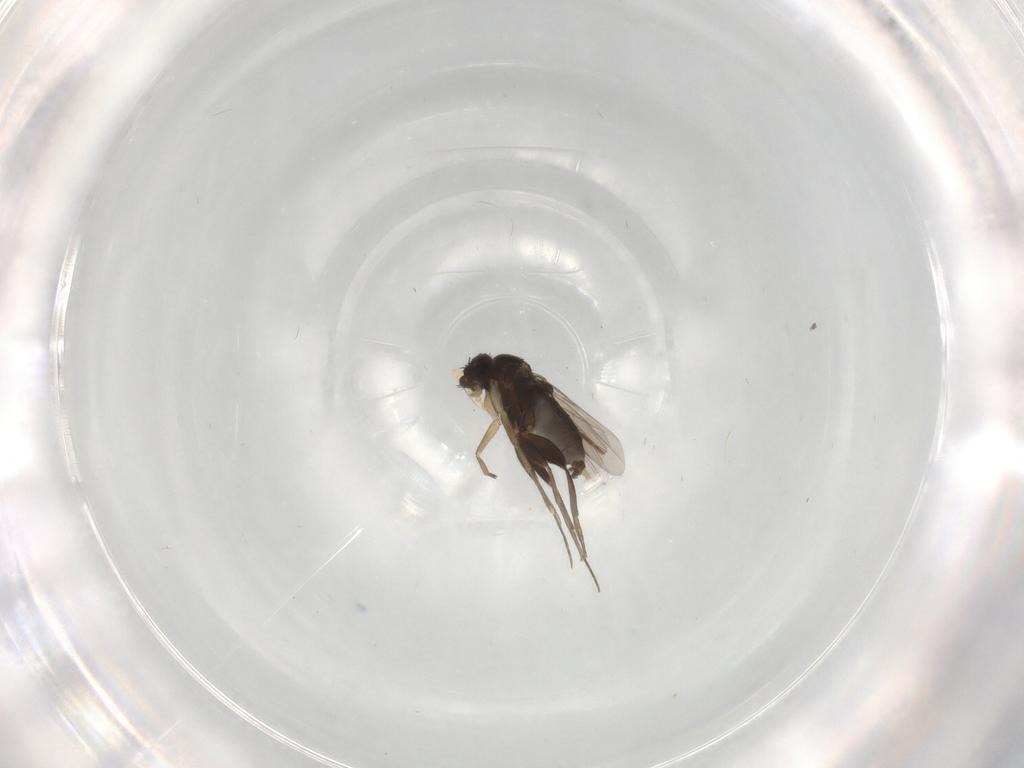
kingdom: Animalia
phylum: Arthropoda
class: Insecta
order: Diptera
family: Phoridae
